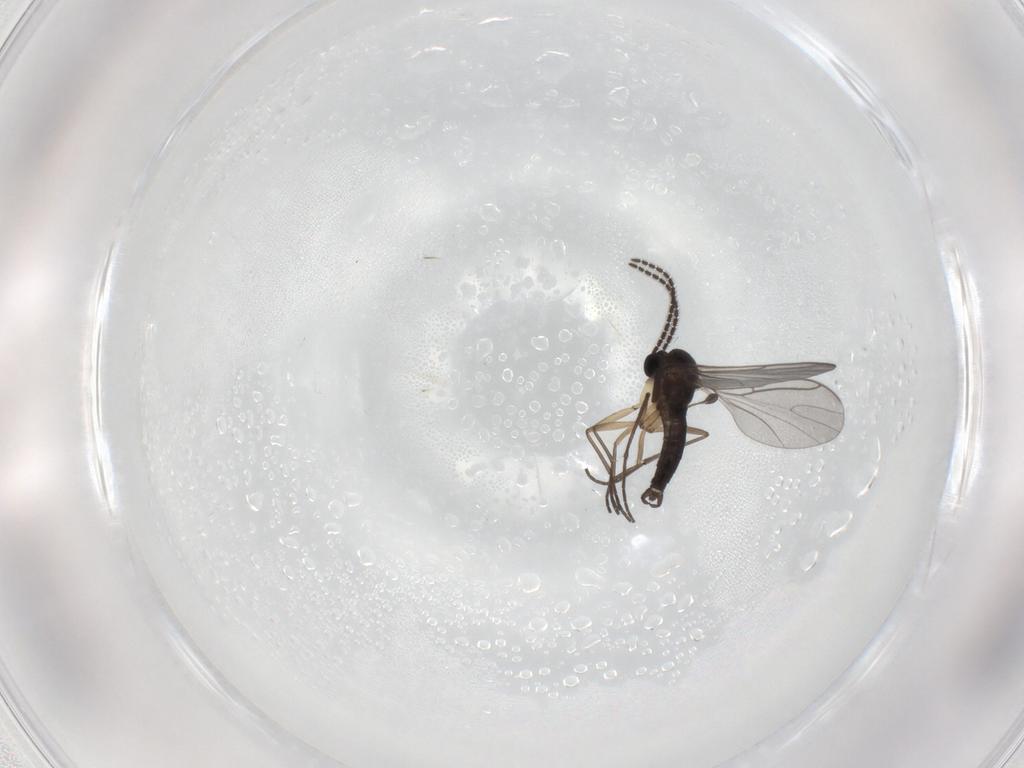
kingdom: Animalia
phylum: Arthropoda
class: Insecta
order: Diptera
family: Sciaridae
